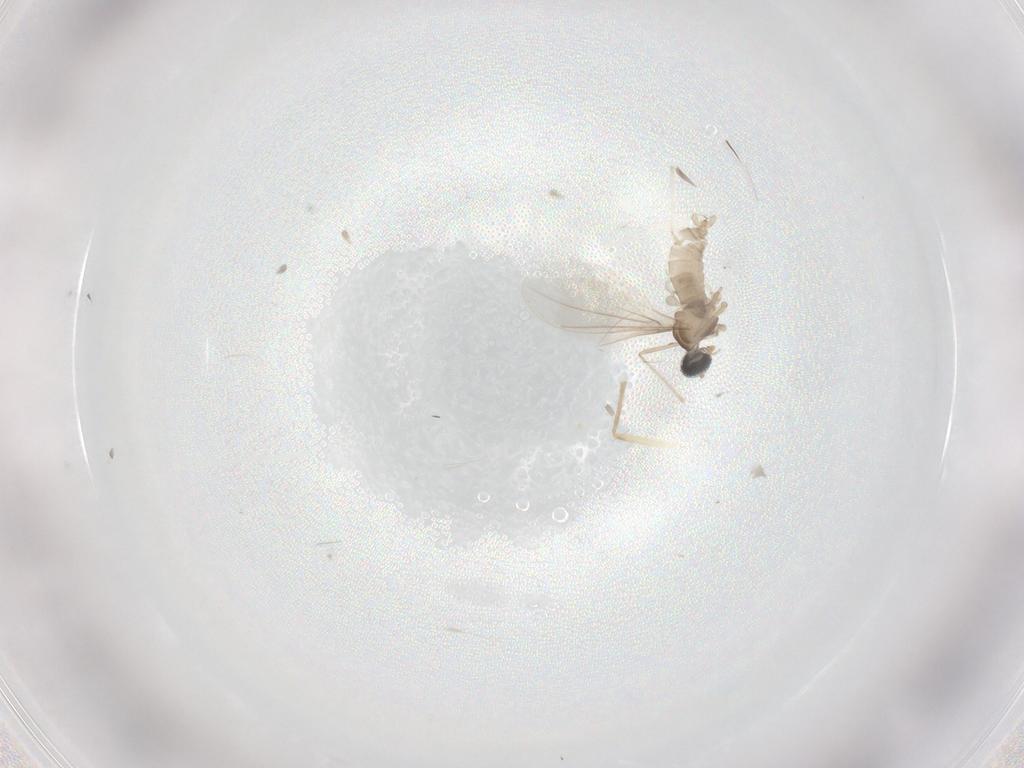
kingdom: Animalia
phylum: Arthropoda
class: Insecta
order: Diptera
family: Cecidomyiidae
